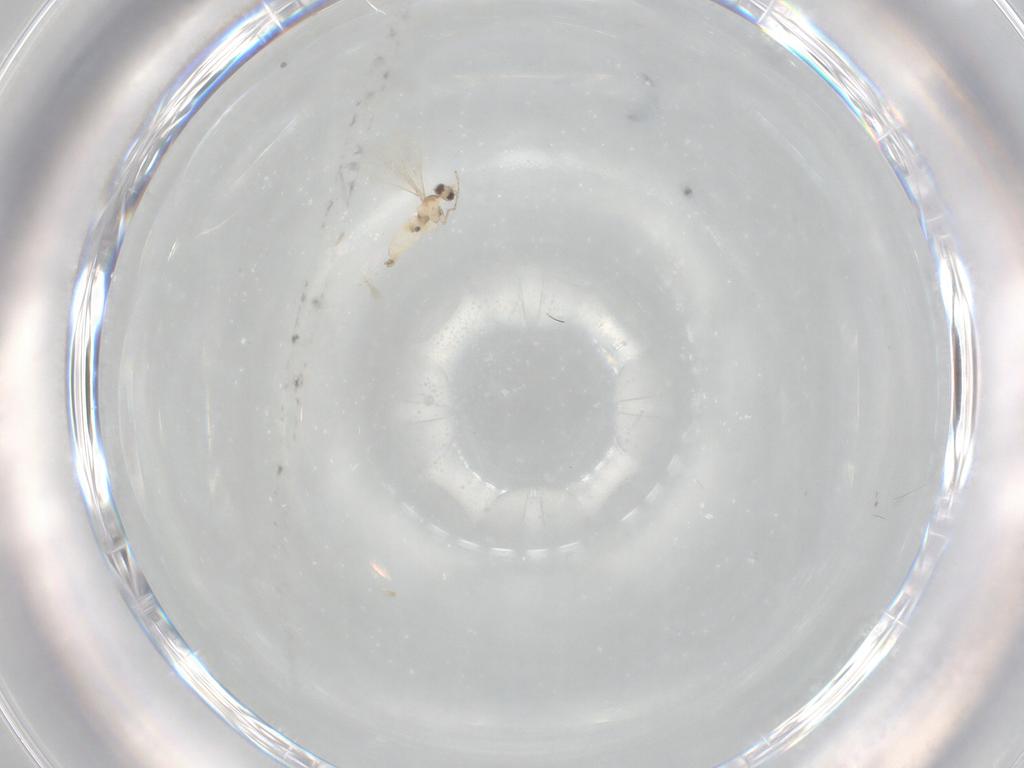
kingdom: Animalia
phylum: Arthropoda
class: Insecta
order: Diptera
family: Cecidomyiidae
